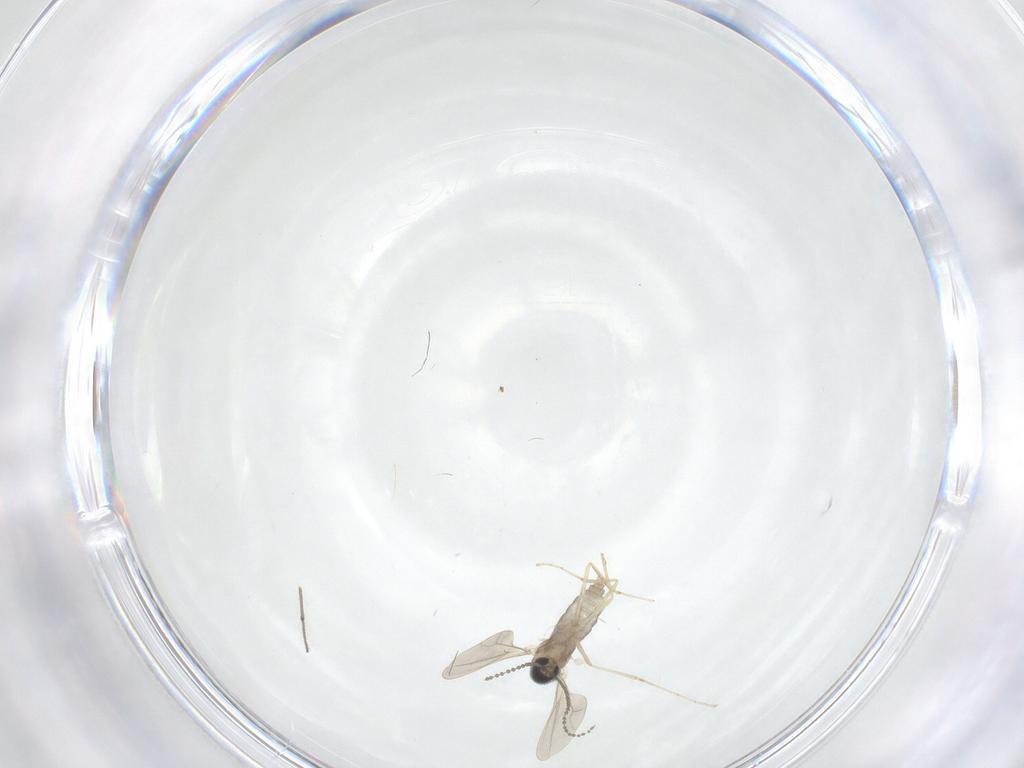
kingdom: Animalia
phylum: Arthropoda
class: Insecta
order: Diptera
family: Cecidomyiidae
